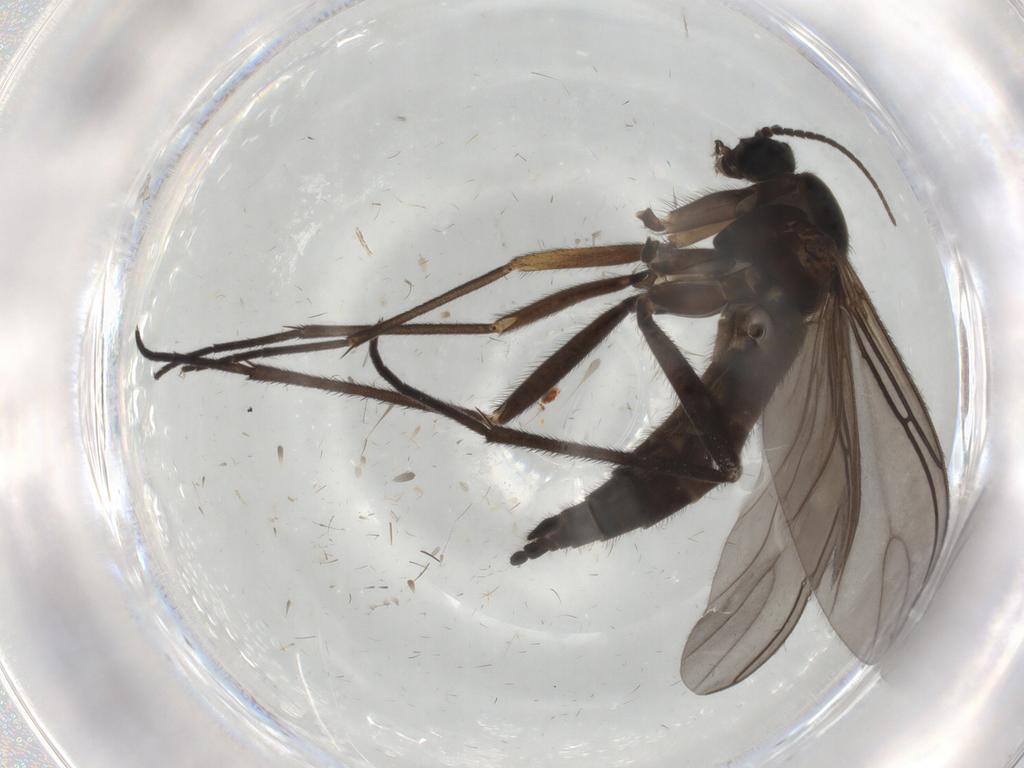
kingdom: Animalia
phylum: Arthropoda
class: Insecta
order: Diptera
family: Sciaridae
